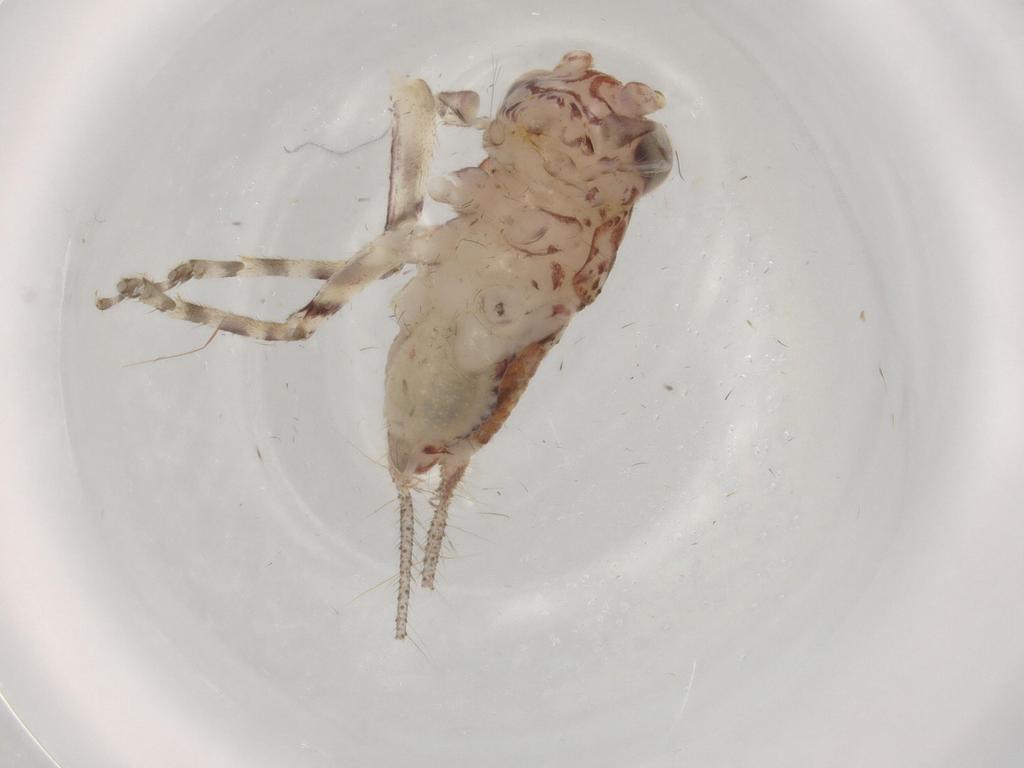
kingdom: Animalia
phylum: Arthropoda
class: Insecta
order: Orthoptera
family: Trigonidiidae
